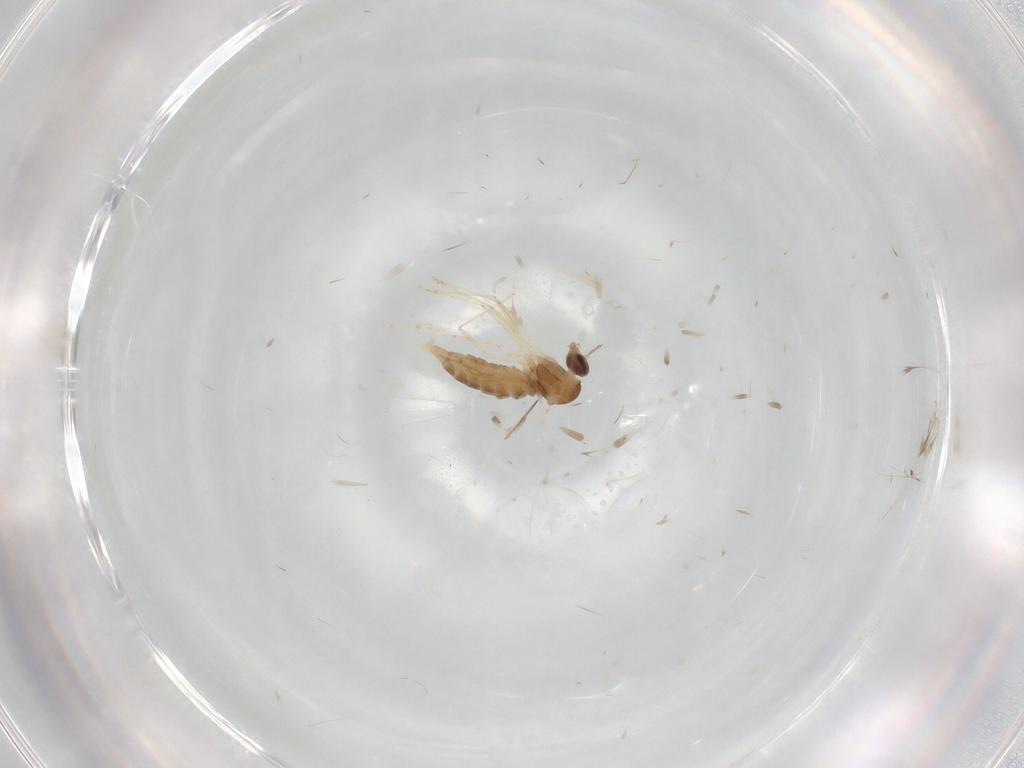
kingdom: Animalia
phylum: Arthropoda
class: Insecta
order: Diptera
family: Cecidomyiidae
